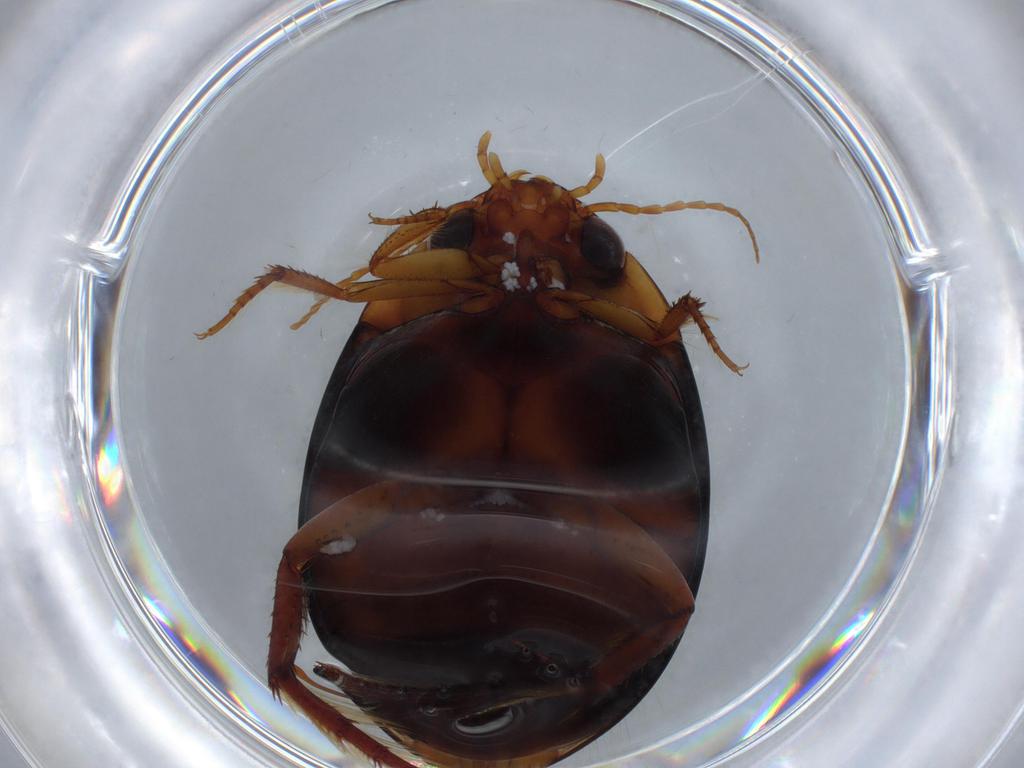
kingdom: Animalia
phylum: Arthropoda
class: Insecta
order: Coleoptera
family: Dytiscidae
